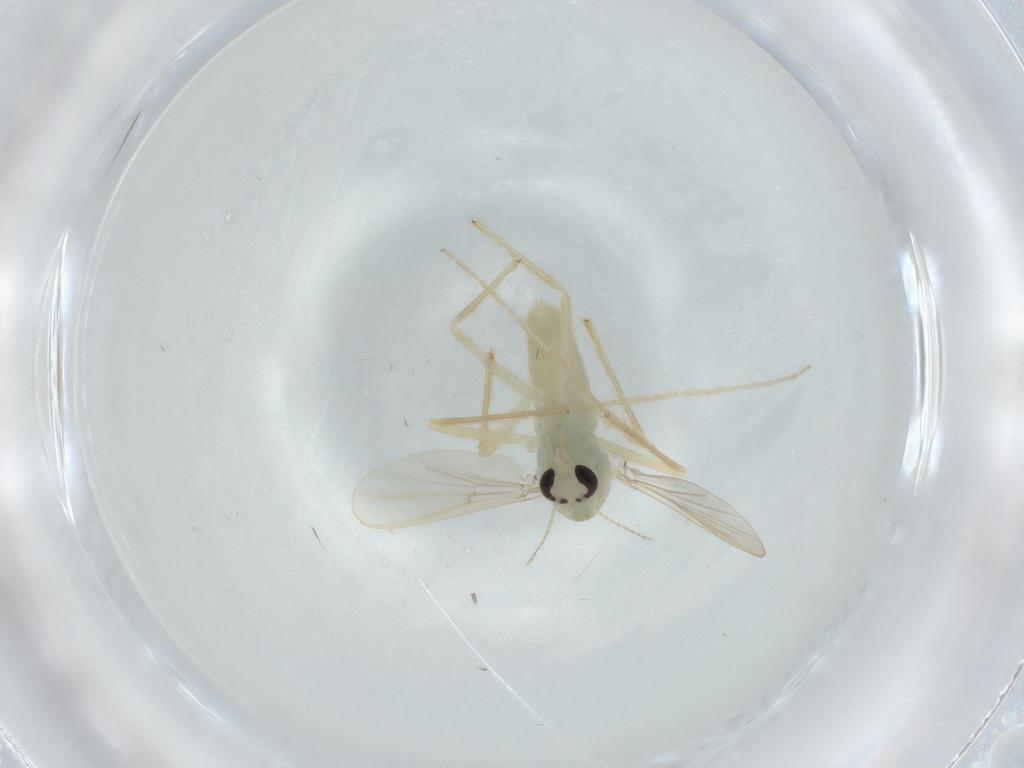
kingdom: Animalia
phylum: Arthropoda
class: Insecta
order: Diptera
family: Chironomidae
